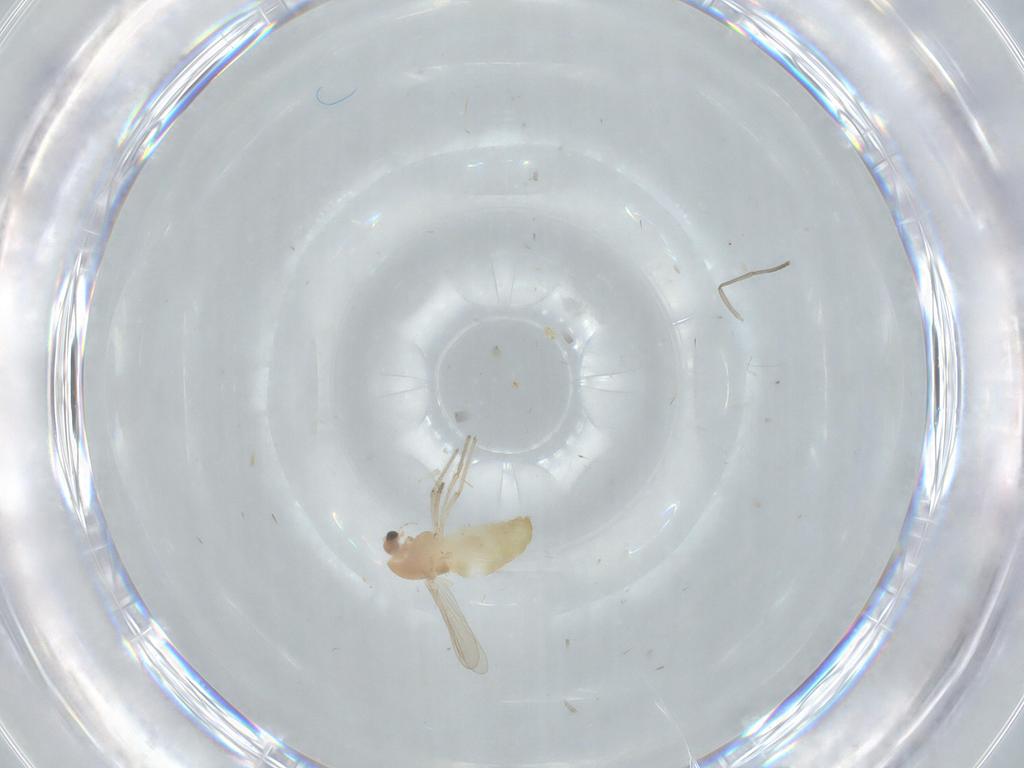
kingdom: Animalia
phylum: Arthropoda
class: Insecta
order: Diptera
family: Chironomidae
